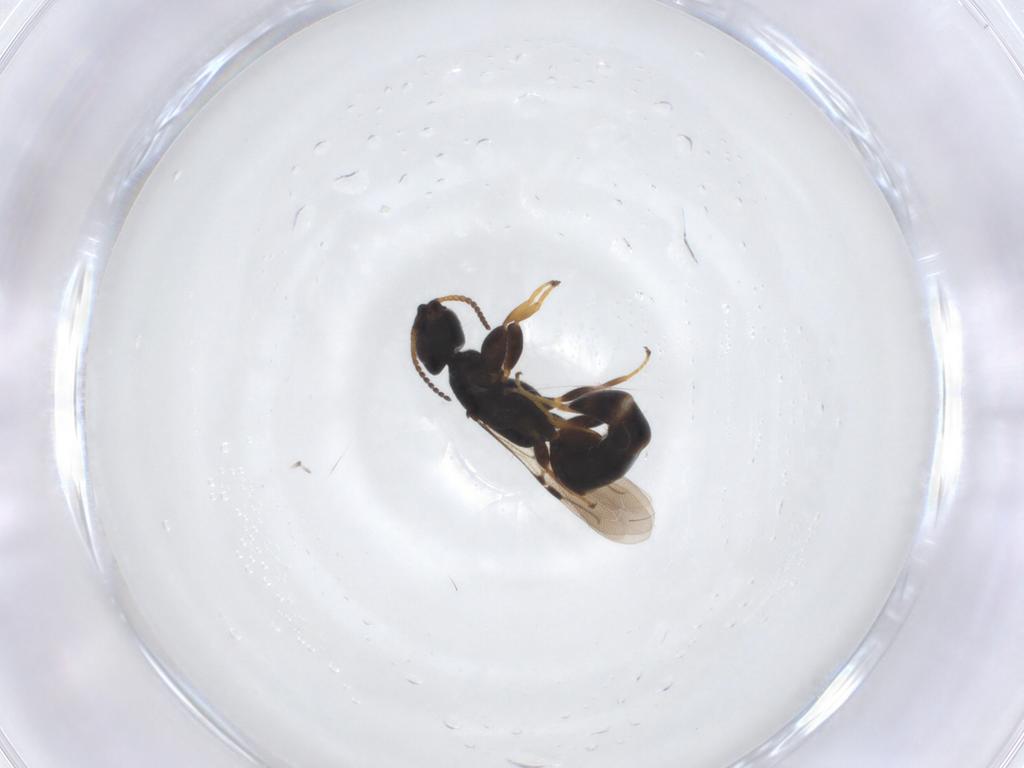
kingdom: Animalia
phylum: Arthropoda
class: Insecta
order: Hymenoptera
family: Bethylidae
